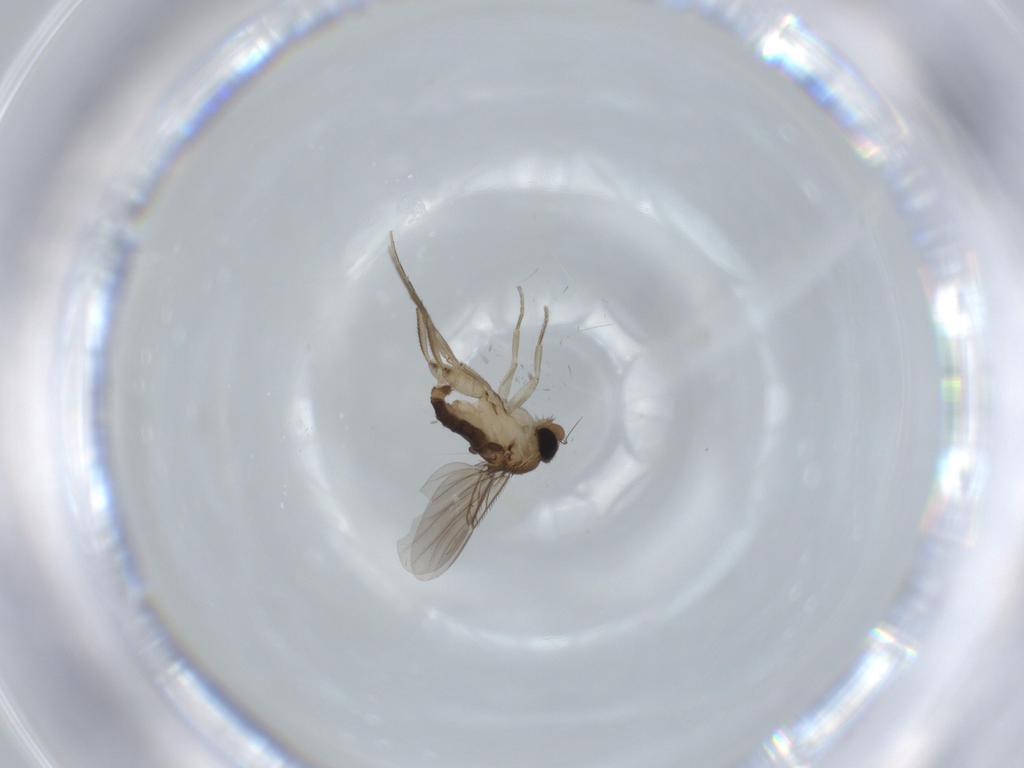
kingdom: Animalia
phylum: Arthropoda
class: Insecta
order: Diptera
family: Phoridae
